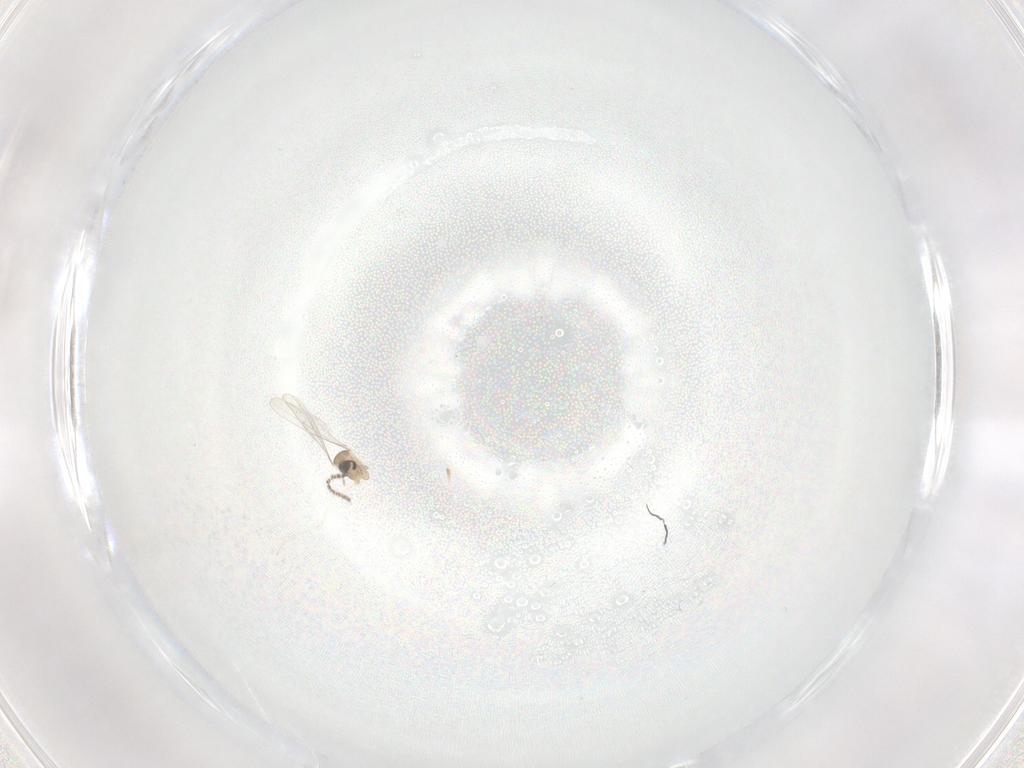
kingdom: Animalia
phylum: Arthropoda
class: Insecta
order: Diptera
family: Cecidomyiidae
